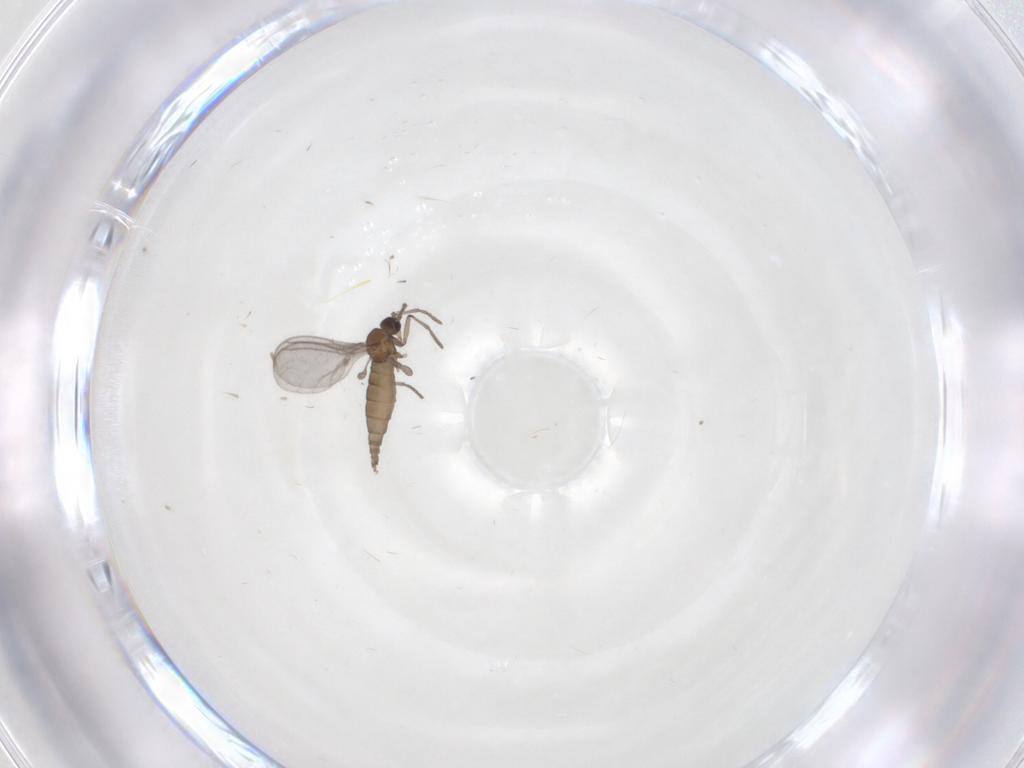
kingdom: Animalia
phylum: Arthropoda
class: Insecta
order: Diptera
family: Sciaridae
